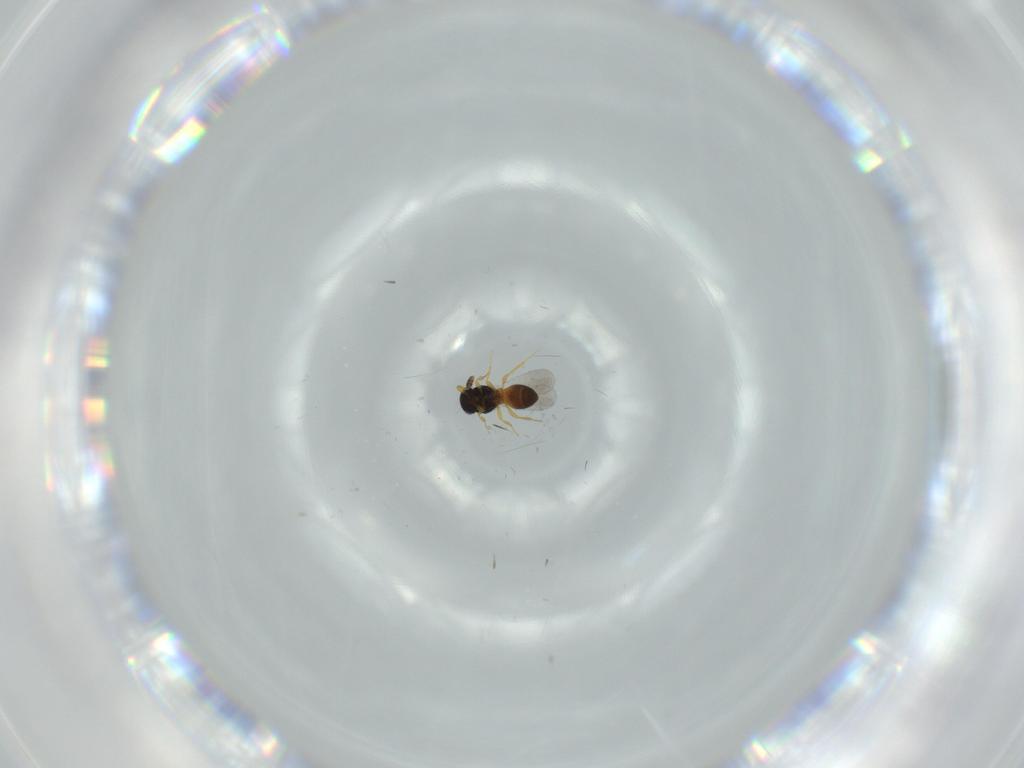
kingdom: Animalia
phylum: Arthropoda
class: Insecta
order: Hymenoptera
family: Platygastridae
